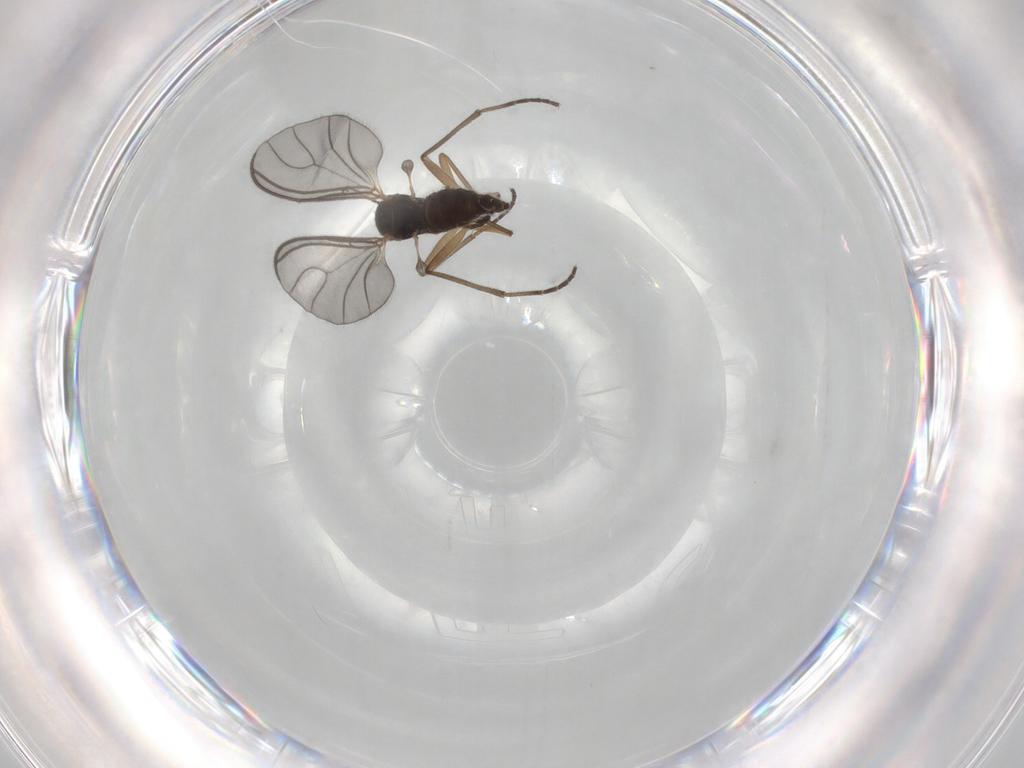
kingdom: Animalia
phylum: Arthropoda
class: Insecta
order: Diptera
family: Sciaridae
